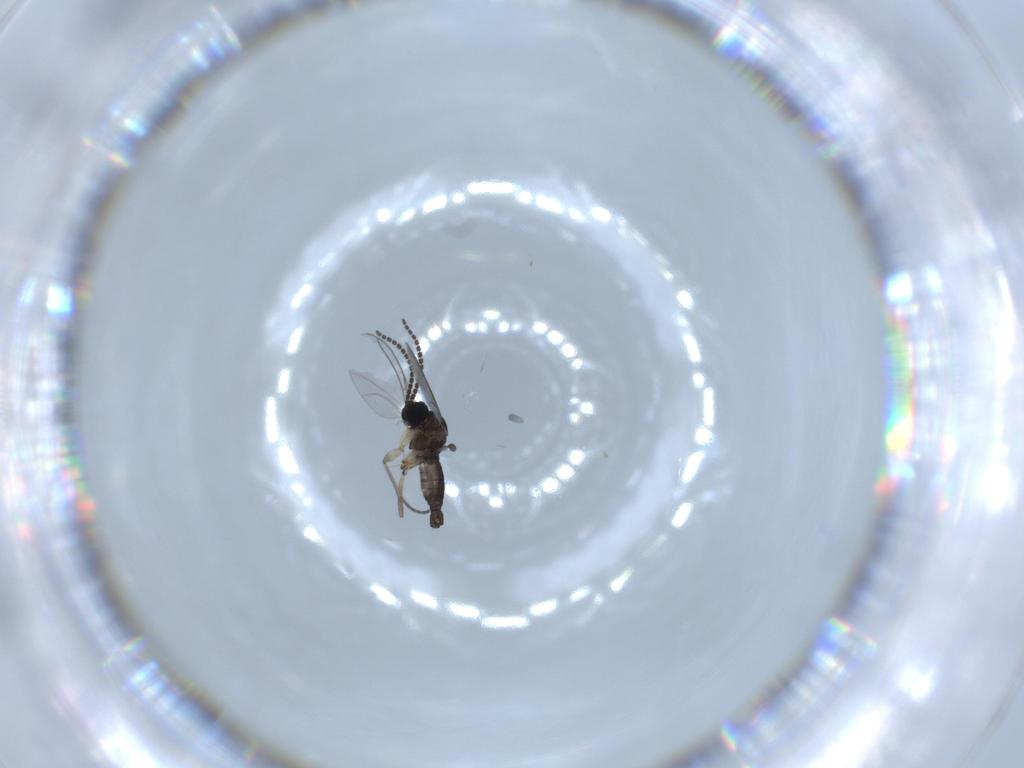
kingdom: Animalia
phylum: Arthropoda
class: Insecta
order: Diptera
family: Sciaridae
